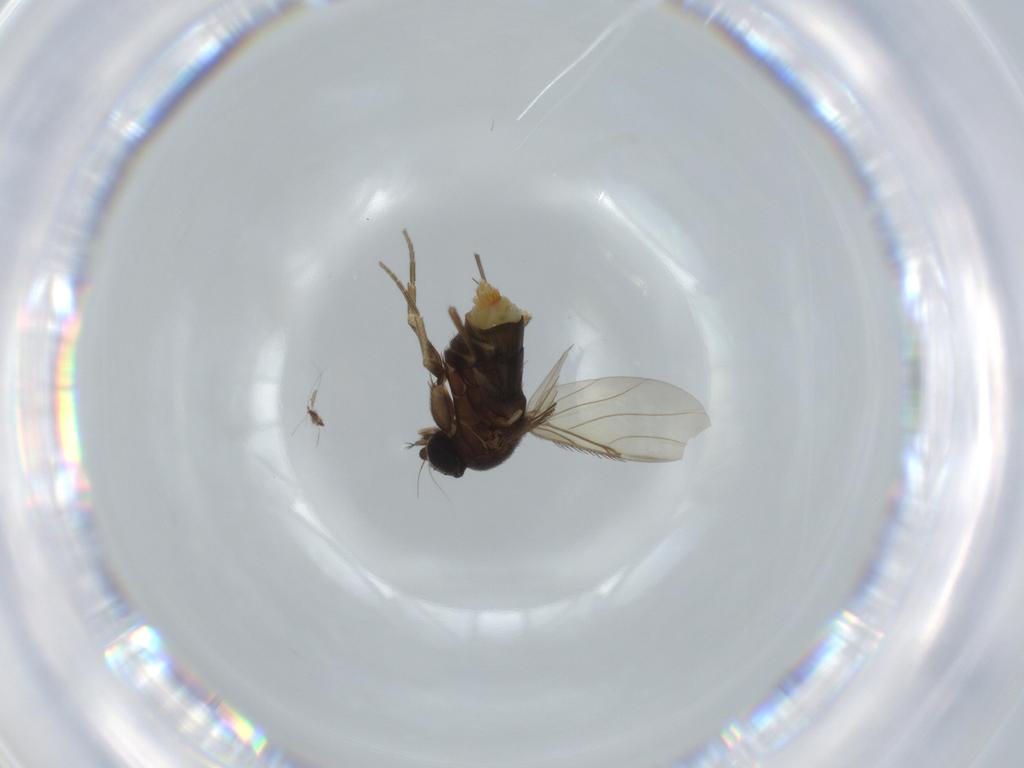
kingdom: Animalia
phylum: Arthropoda
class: Insecta
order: Diptera
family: Phoridae
